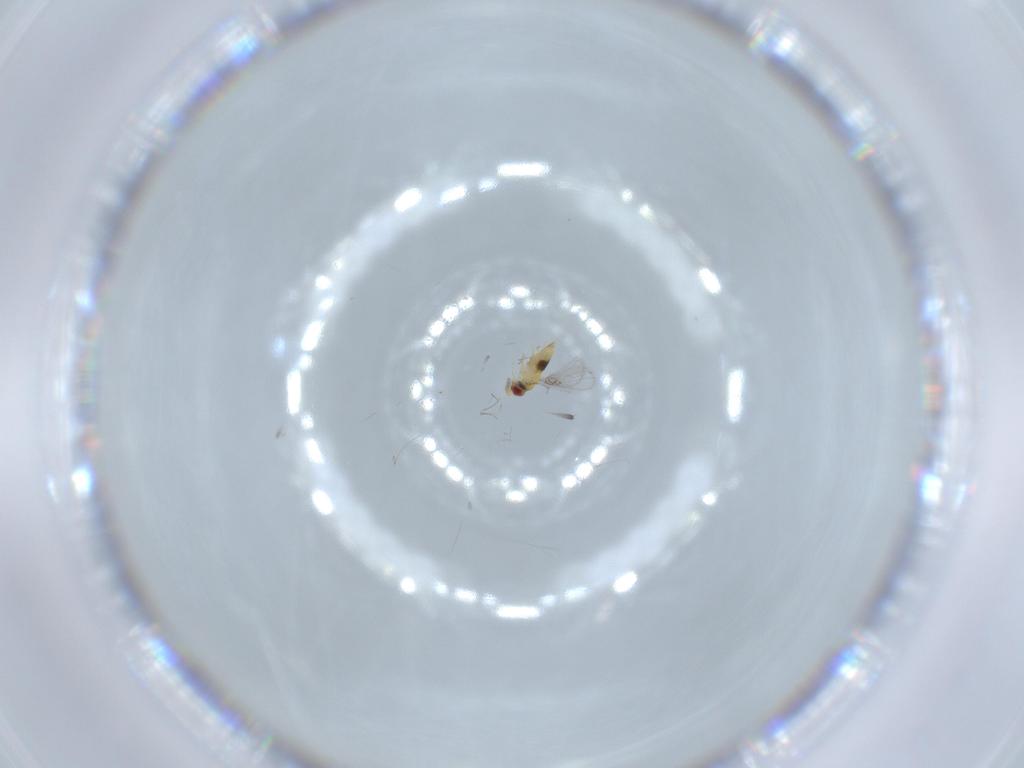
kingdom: Animalia
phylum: Arthropoda
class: Insecta
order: Hymenoptera
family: Trichogrammatidae
